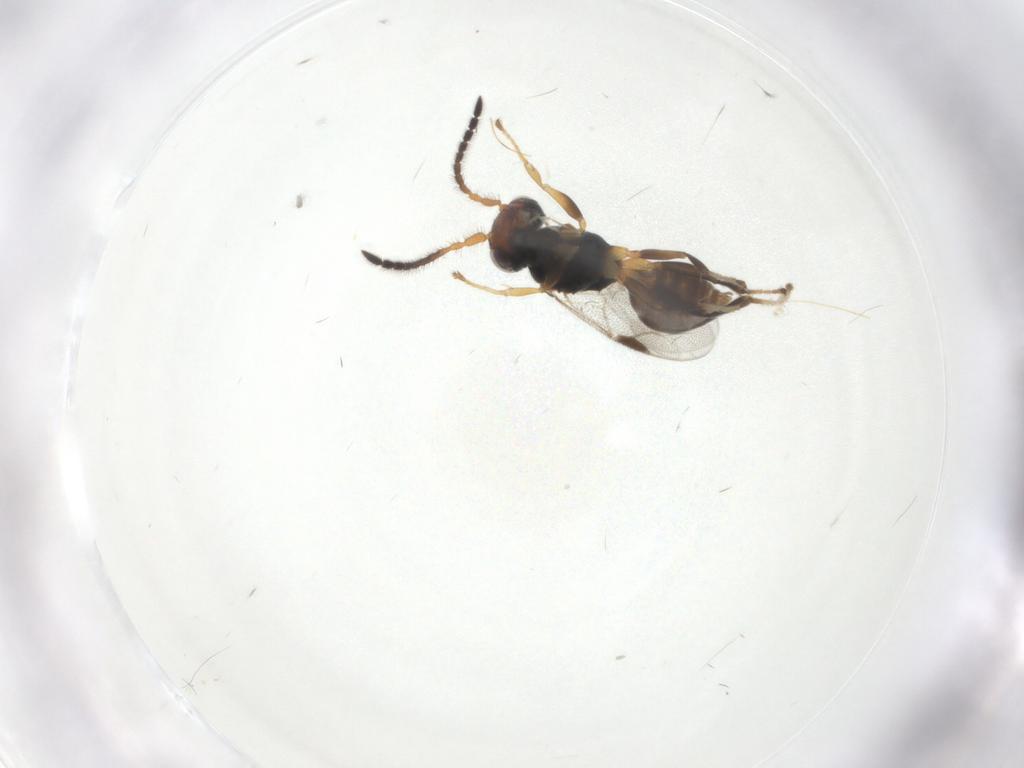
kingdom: Animalia
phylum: Arthropoda
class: Insecta
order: Hymenoptera
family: Dryinidae
